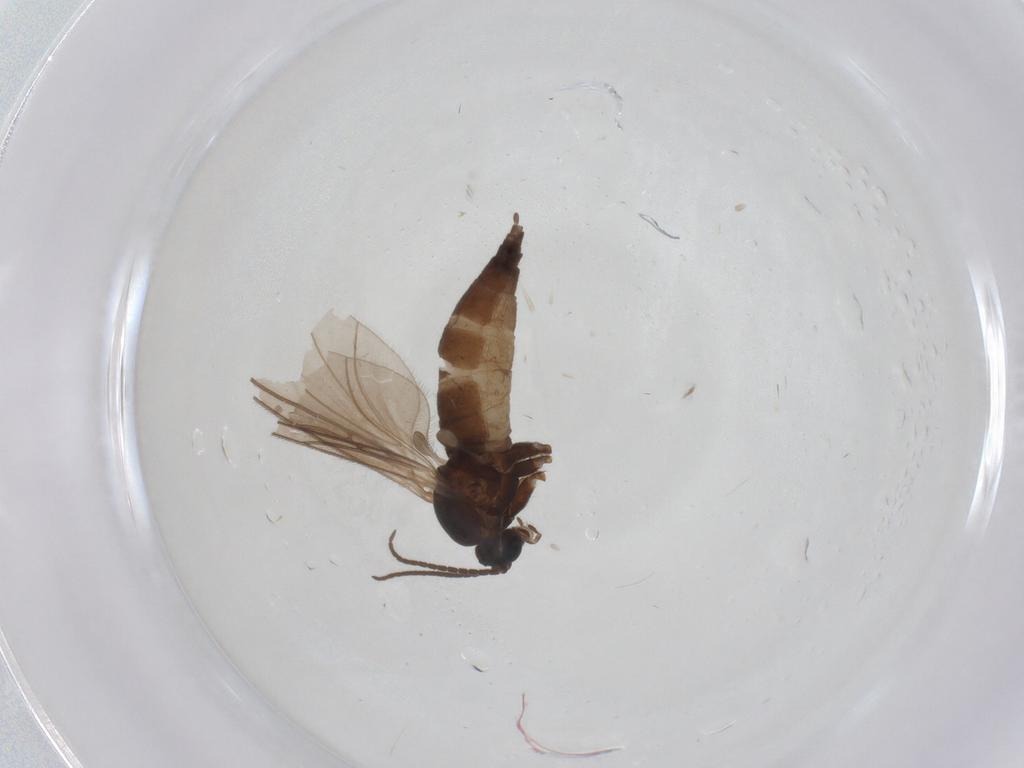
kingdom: Animalia
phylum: Arthropoda
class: Insecta
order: Diptera
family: Sciaridae
